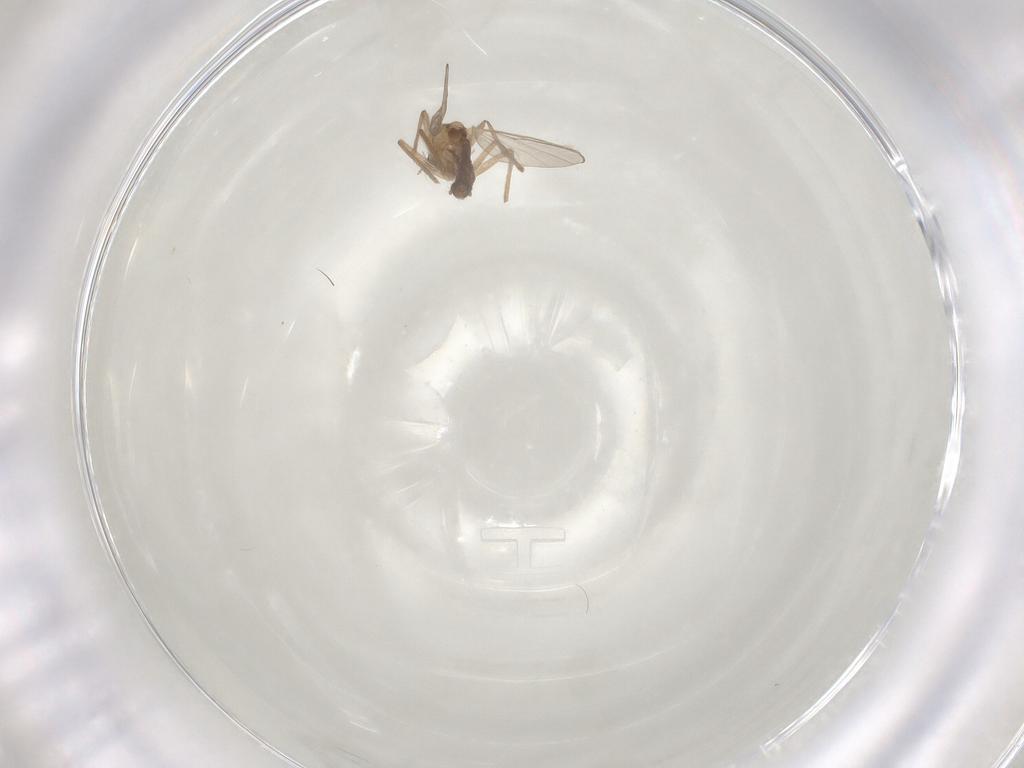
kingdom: Animalia
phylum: Arthropoda
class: Insecta
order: Diptera
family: Chironomidae
